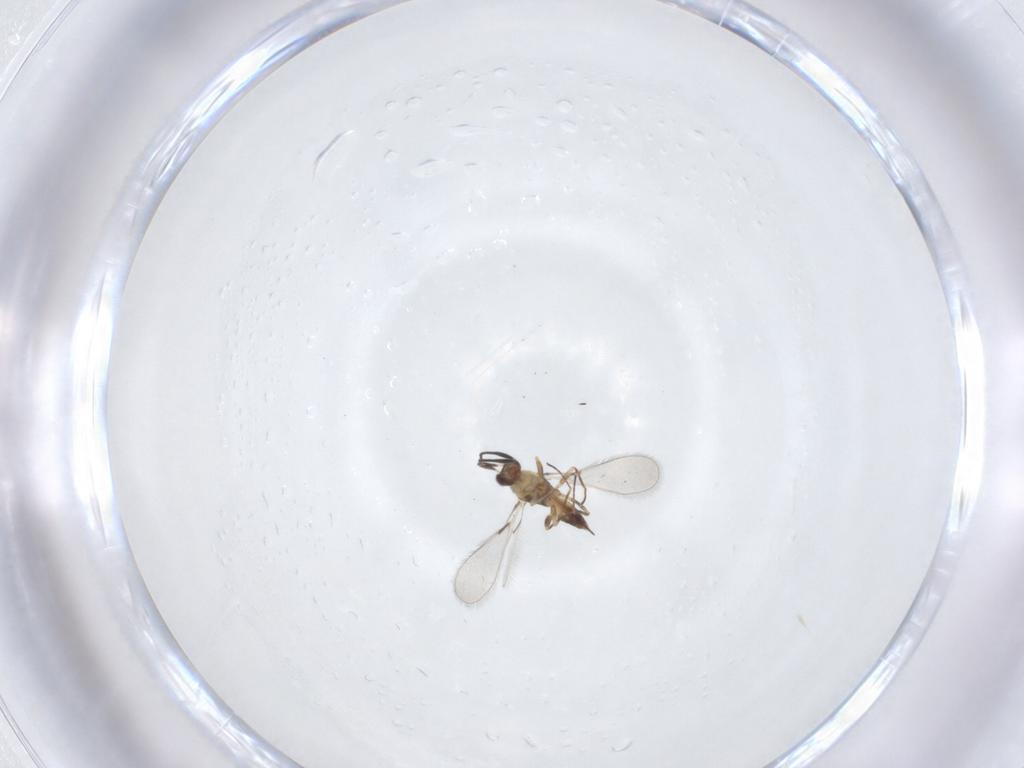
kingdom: Animalia
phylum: Arthropoda
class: Insecta
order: Hymenoptera
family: Mymaridae
